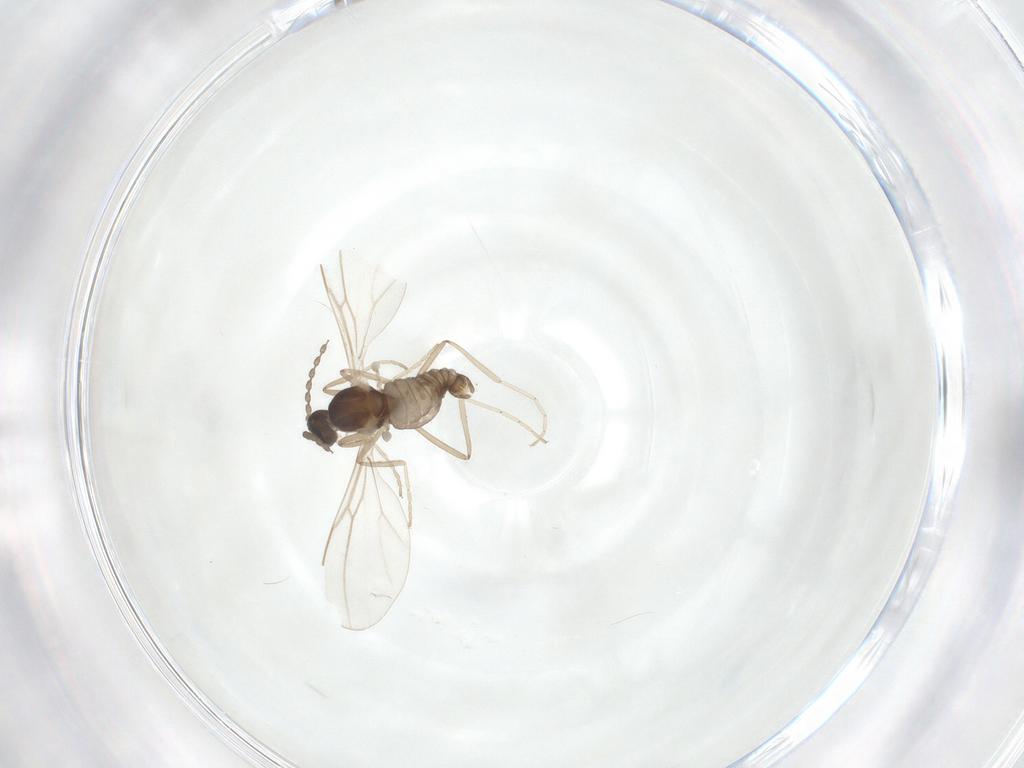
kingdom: Animalia
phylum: Arthropoda
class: Insecta
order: Diptera
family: Cecidomyiidae
